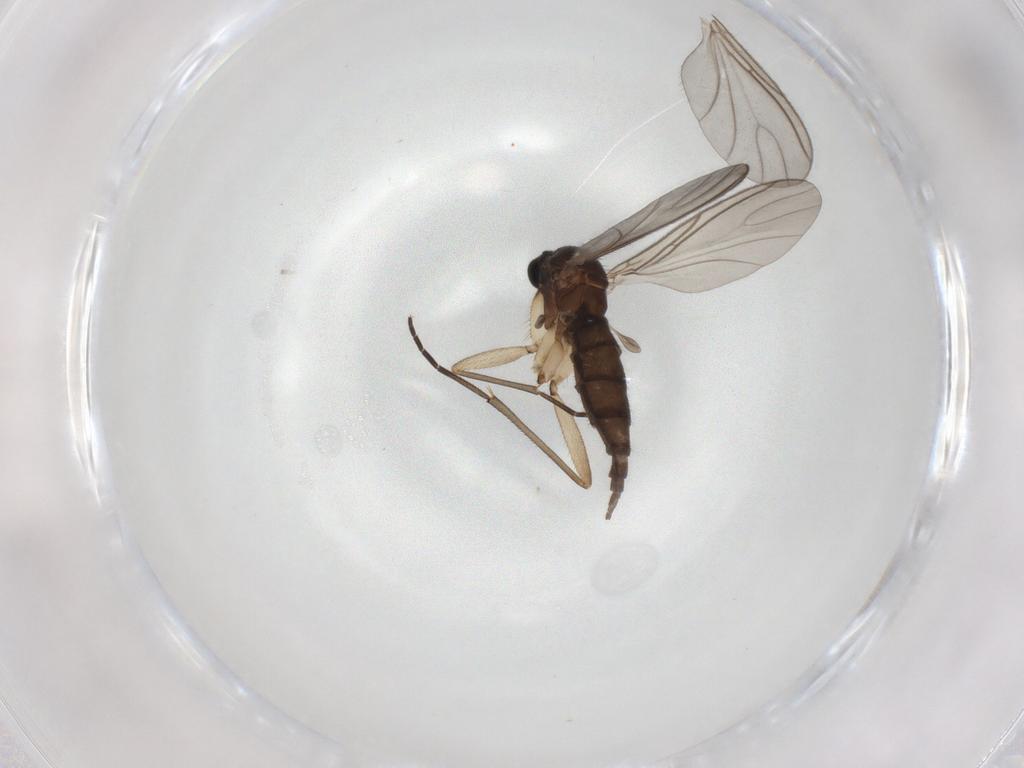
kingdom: Animalia
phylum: Arthropoda
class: Insecta
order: Diptera
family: Sciaridae
